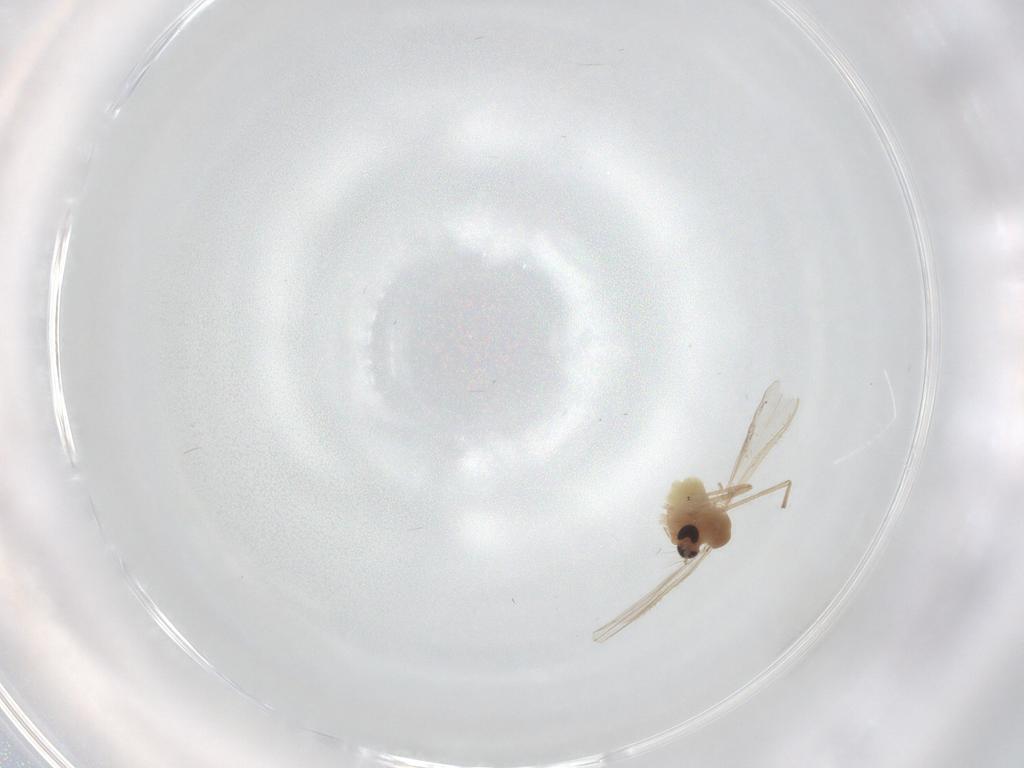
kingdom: Animalia
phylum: Arthropoda
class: Insecta
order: Diptera
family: Chironomidae
